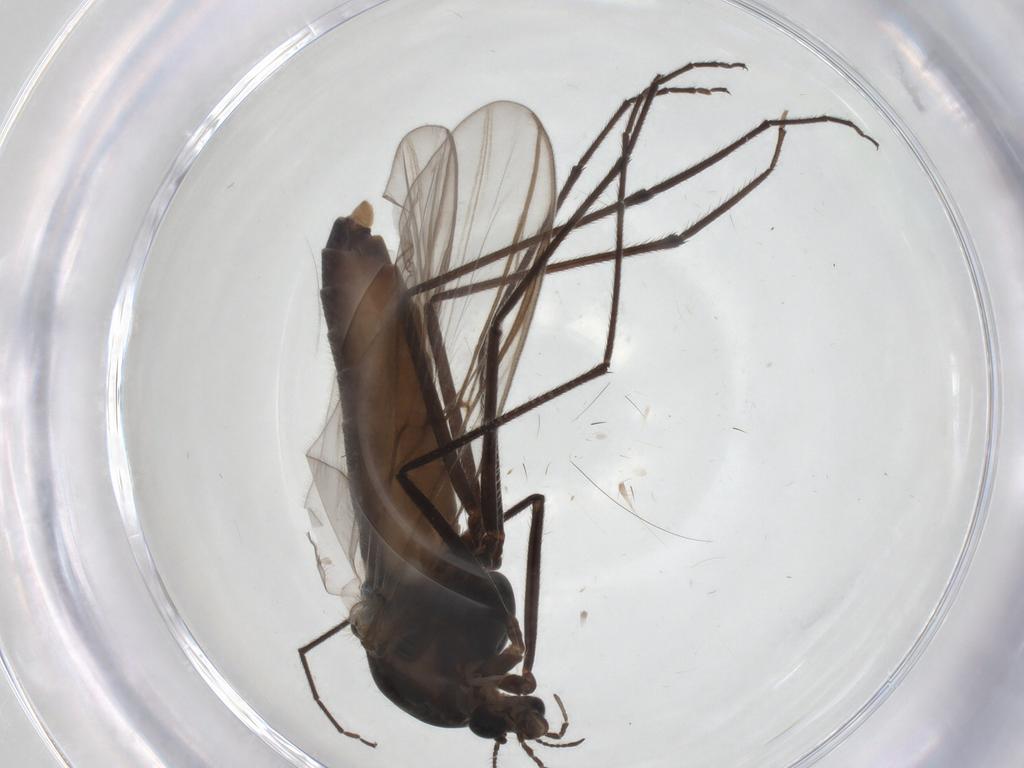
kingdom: Animalia
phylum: Arthropoda
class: Insecta
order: Diptera
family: Chironomidae
